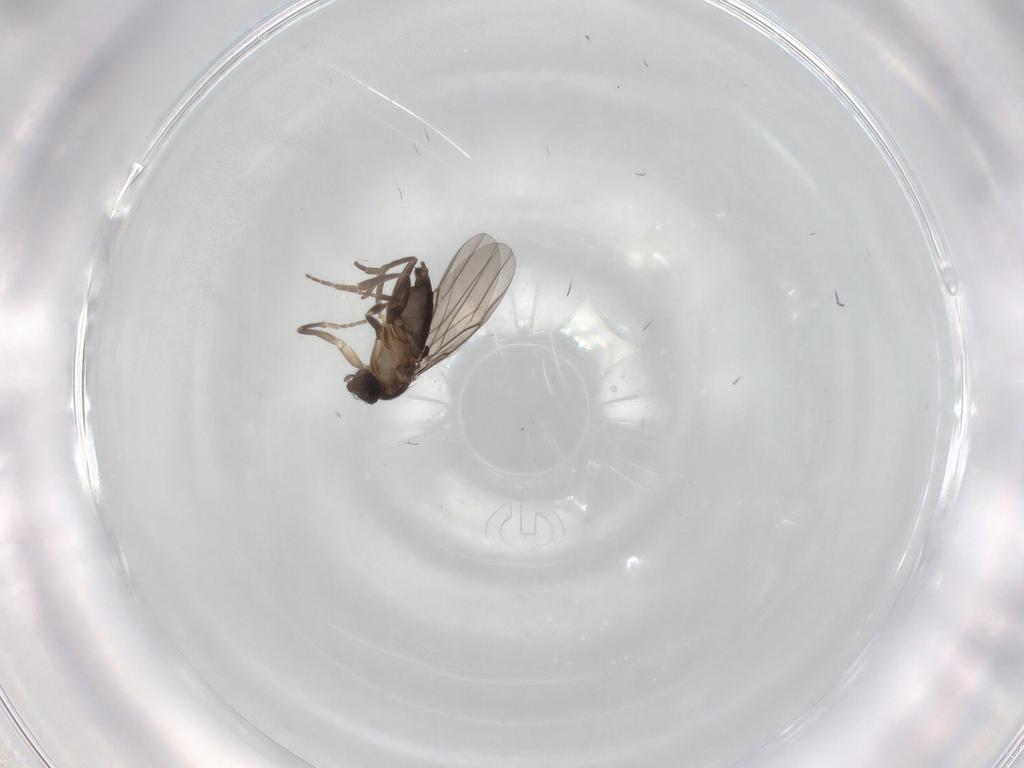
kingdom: Animalia
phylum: Arthropoda
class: Insecta
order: Diptera
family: Phoridae
